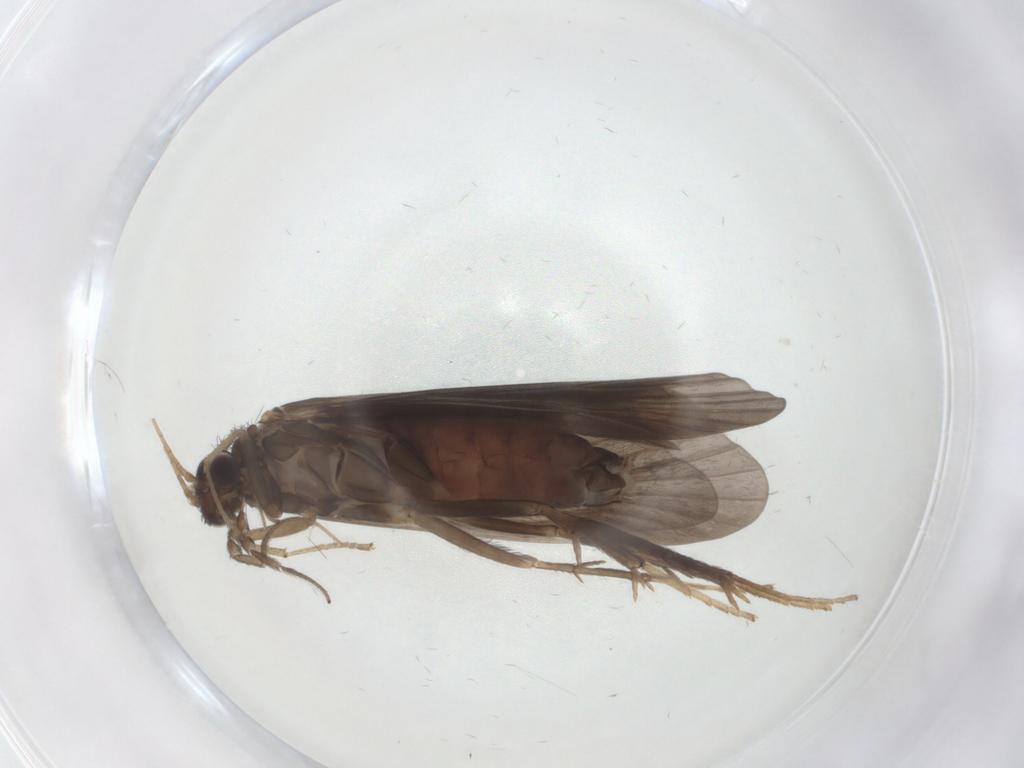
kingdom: Animalia
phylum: Arthropoda
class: Insecta
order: Trichoptera
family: Hydropsychidae
